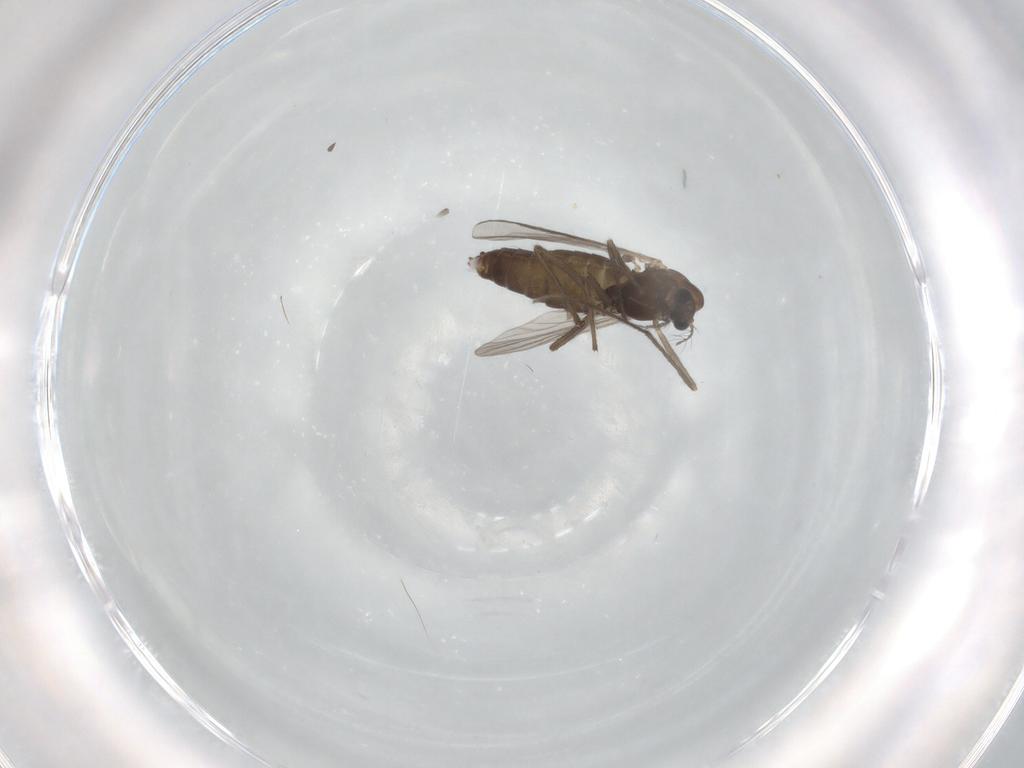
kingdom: Animalia
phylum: Arthropoda
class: Insecta
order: Diptera
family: Chironomidae
